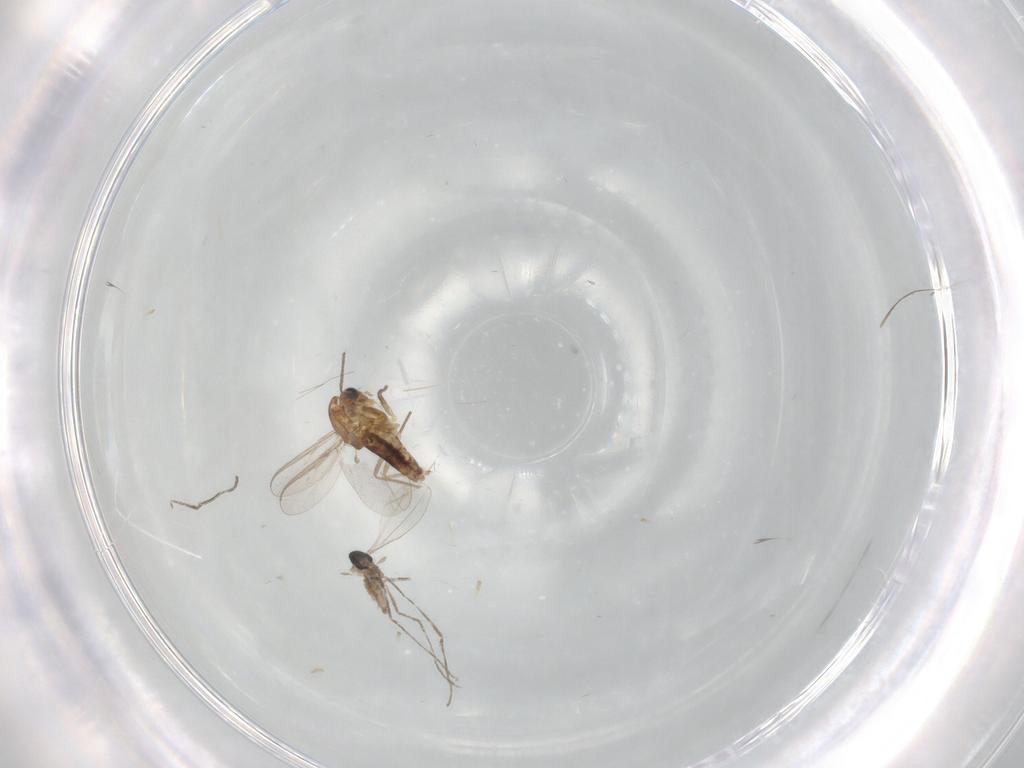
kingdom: Animalia
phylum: Arthropoda
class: Insecta
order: Diptera
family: Chironomidae
